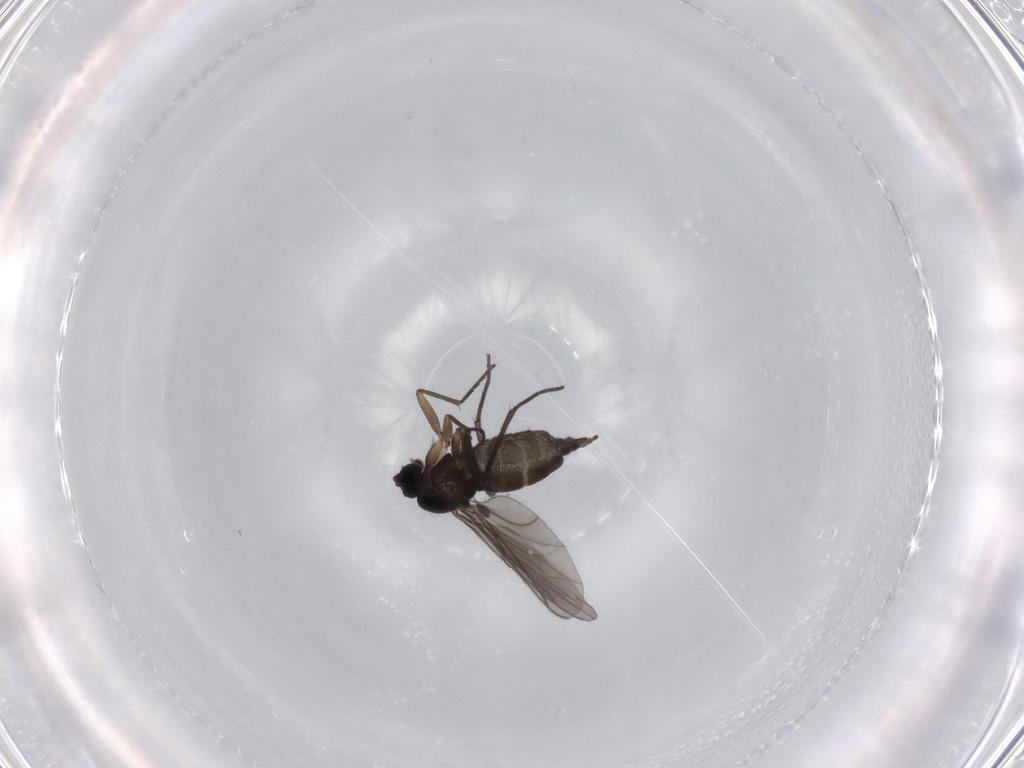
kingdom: Animalia
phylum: Arthropoda
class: Insecta
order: Diptera
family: Sciaridae
